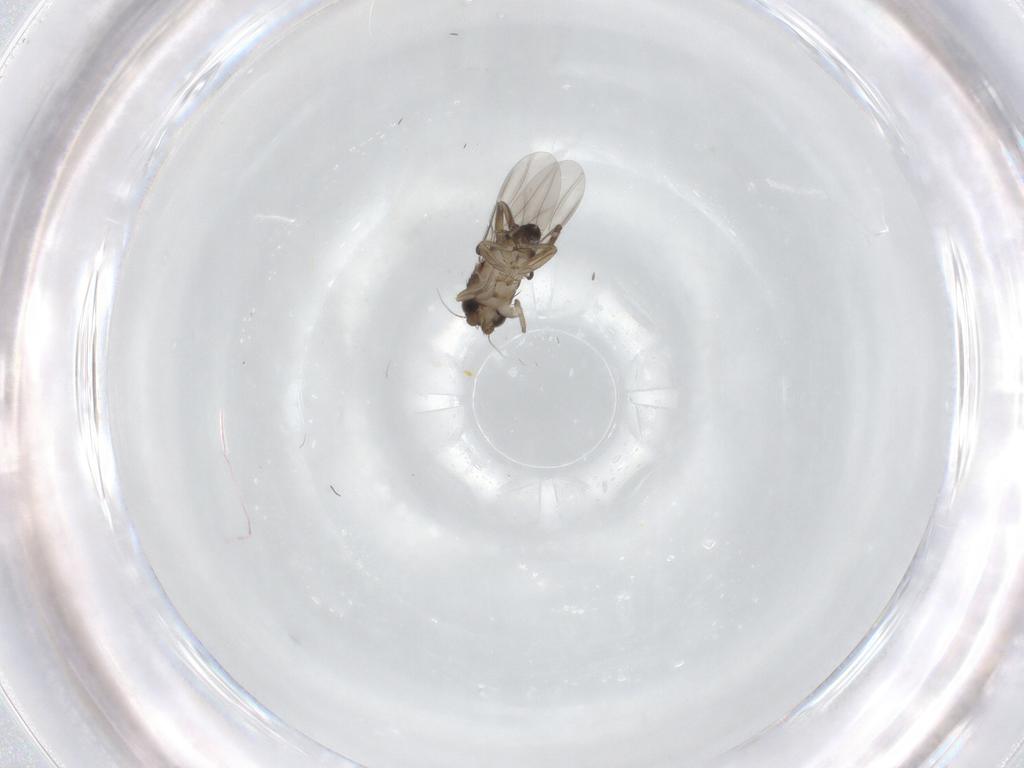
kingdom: Animalia
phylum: Arthropoda
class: Insecta
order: Diptera
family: Phoridae
